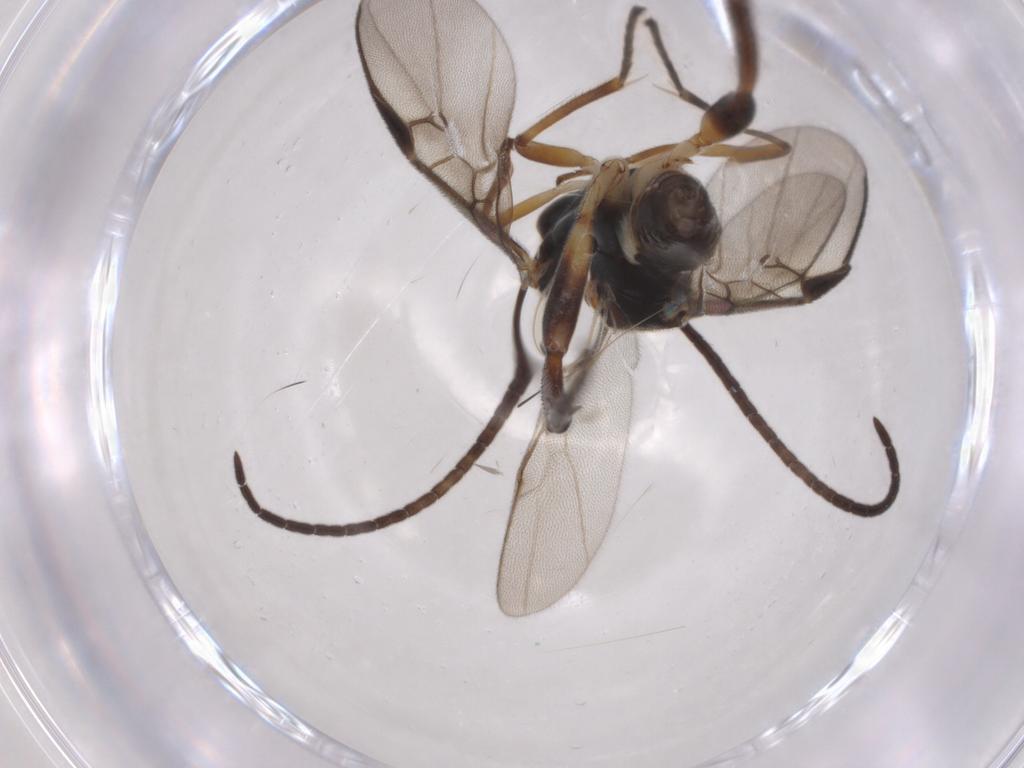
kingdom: Animalia
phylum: Arthropoda
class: Insecta
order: Hymenoptera
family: Braconidae
